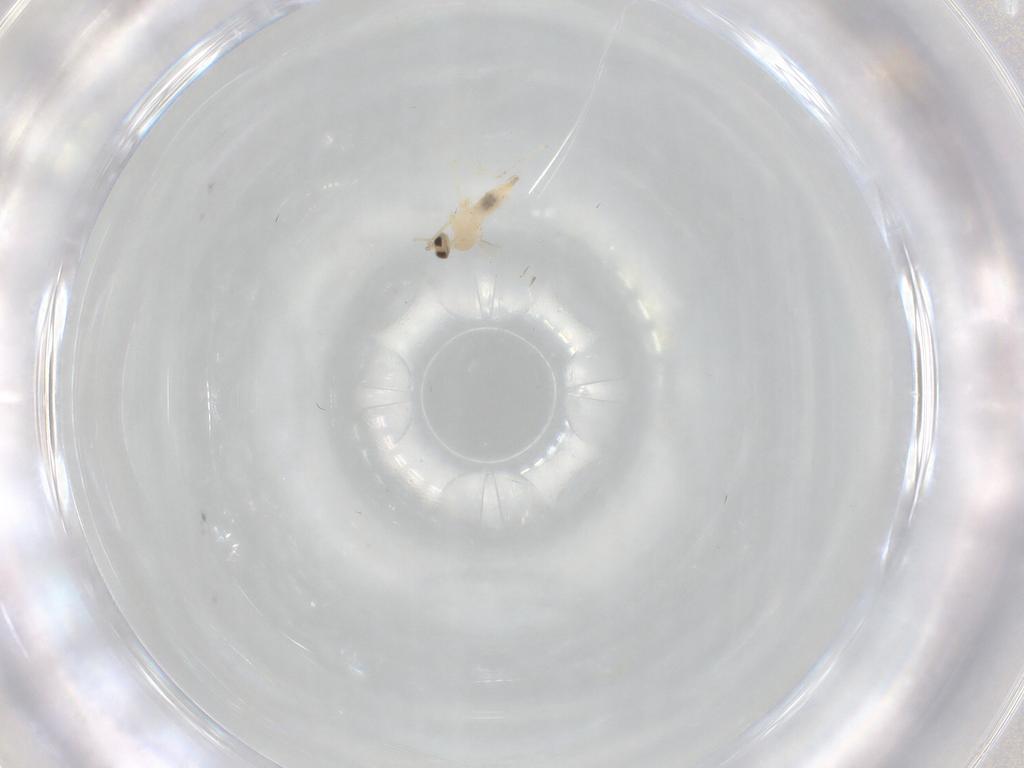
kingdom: Animalia
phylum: Arthropoda
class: Insecta
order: Diptera
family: Cecidomyiidae
